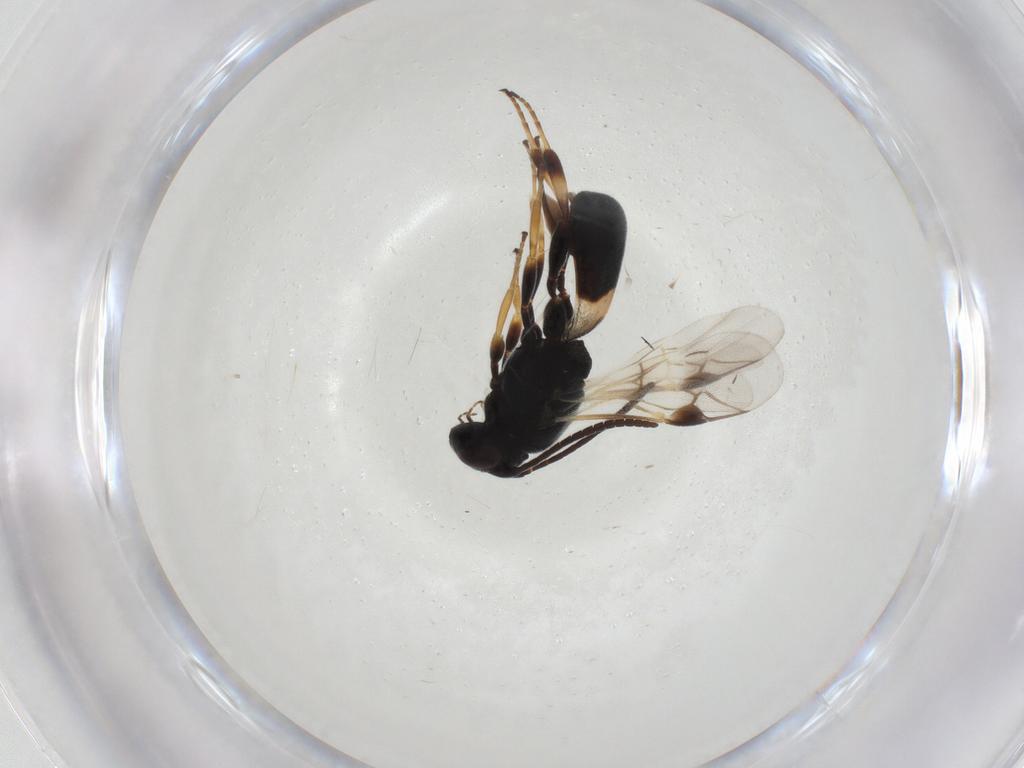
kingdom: Animalia
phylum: Arthropoda
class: Insecta
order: Hymenoptera
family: Braconidae
